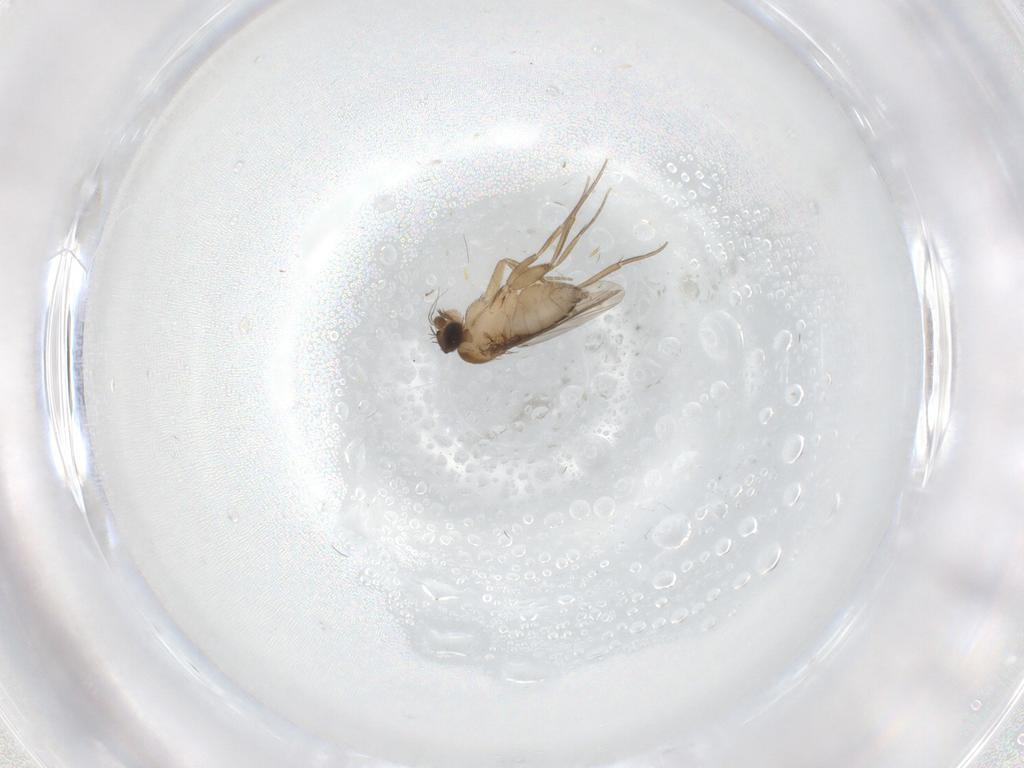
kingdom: Animalia
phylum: Arthropoda
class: Insecta
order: Diptera
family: Phoridae
